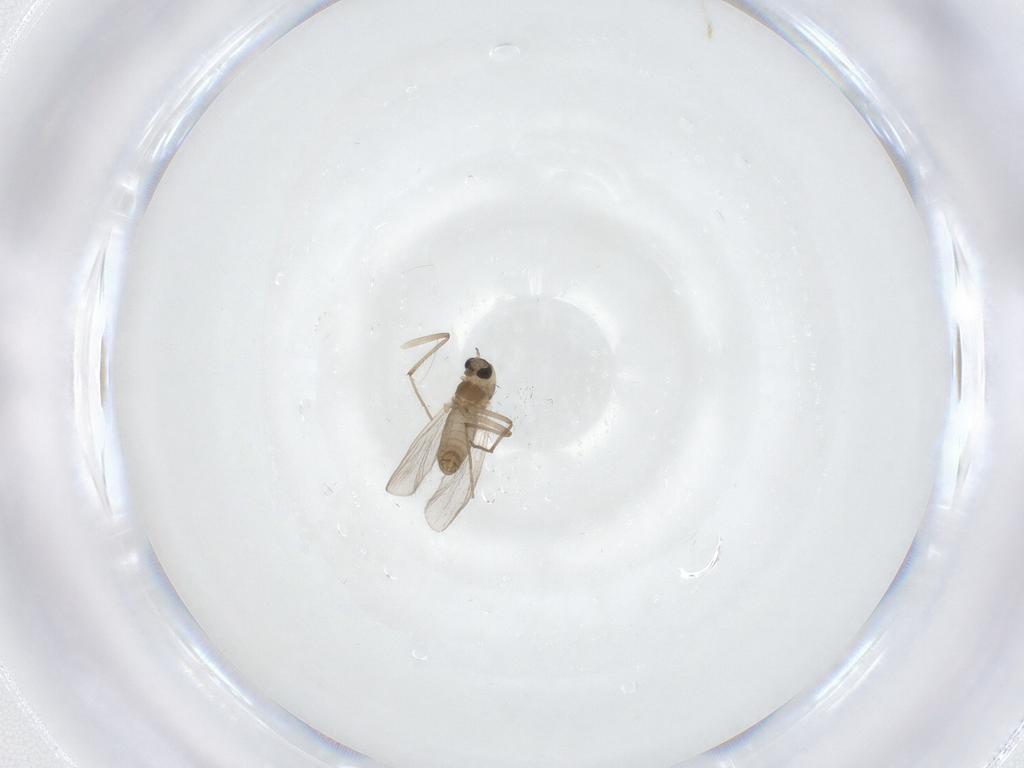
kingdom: Animalia
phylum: Arthropoda
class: Insecta
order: Diptera
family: Chironomidae
